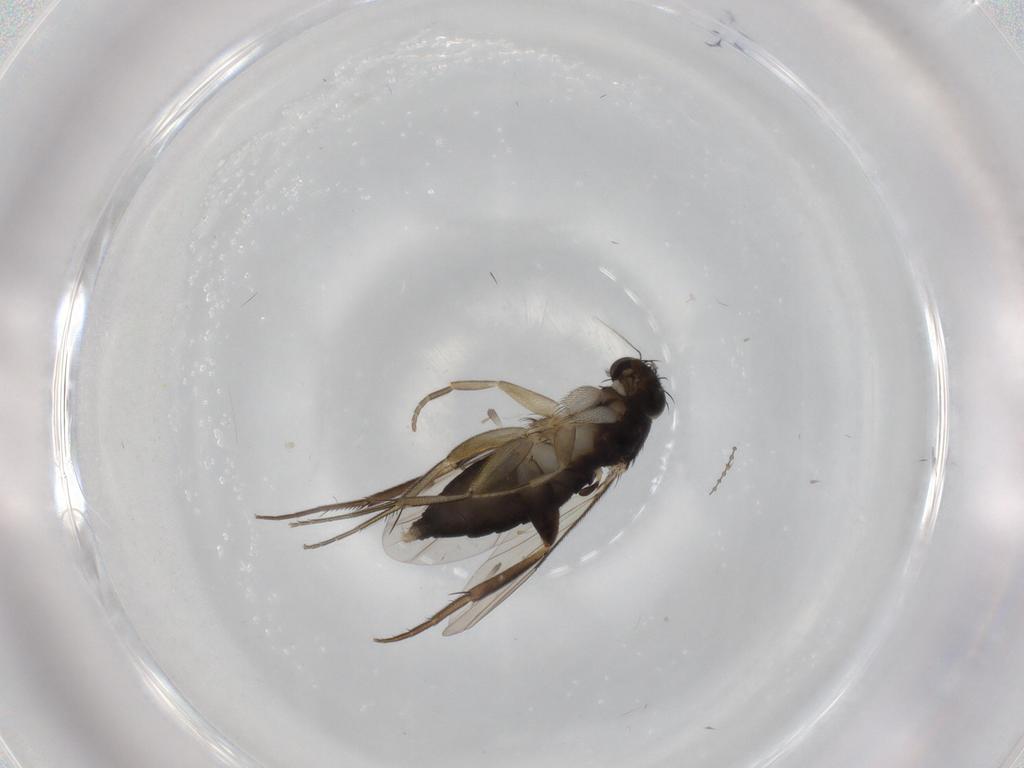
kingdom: Animalia
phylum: Arthropoda
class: Insecta
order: Diptera
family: Phoridae
